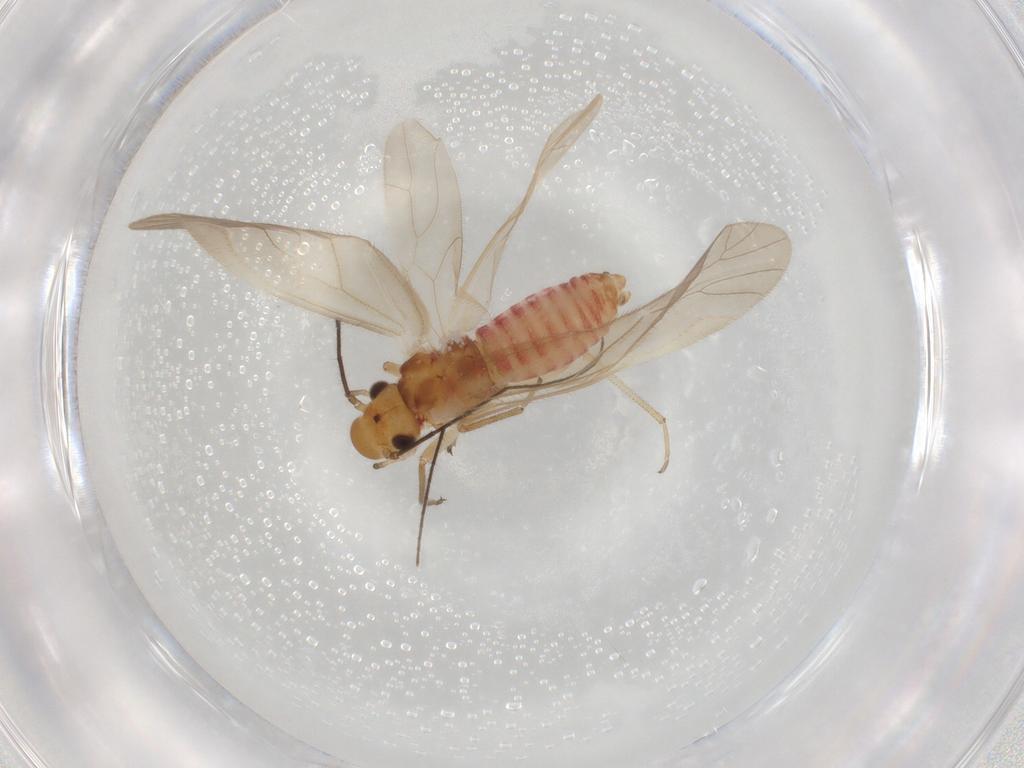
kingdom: Animalia
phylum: Arthropoda
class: Insecta
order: Psocodea
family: Caeciliusidae
